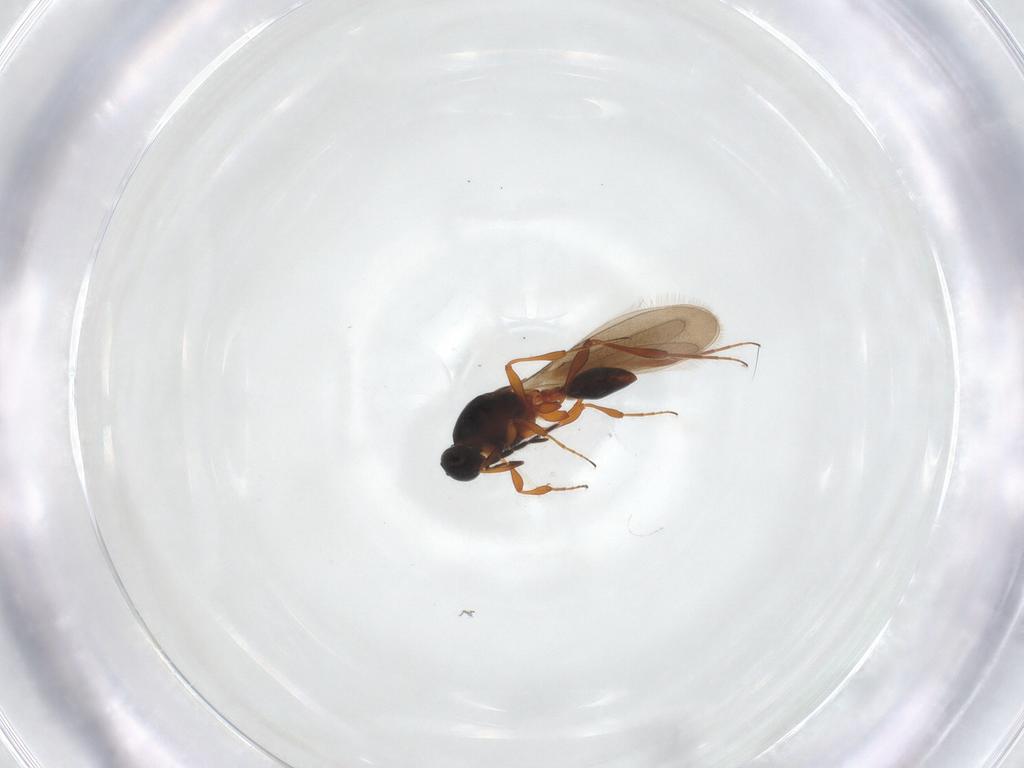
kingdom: Animalia
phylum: Arthropoda
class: Insecta
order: Hymenoptera
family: Platygastridae
